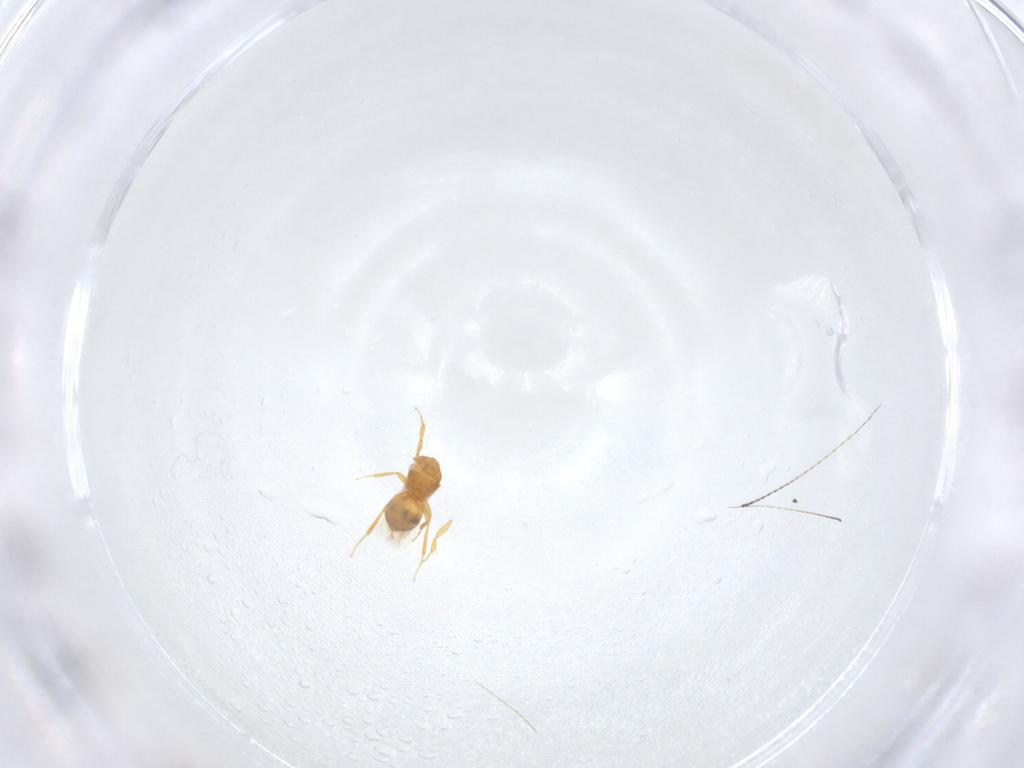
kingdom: Animalia
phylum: Arthropoda
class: Insecta
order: Hymenoptera
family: Scelionidae
